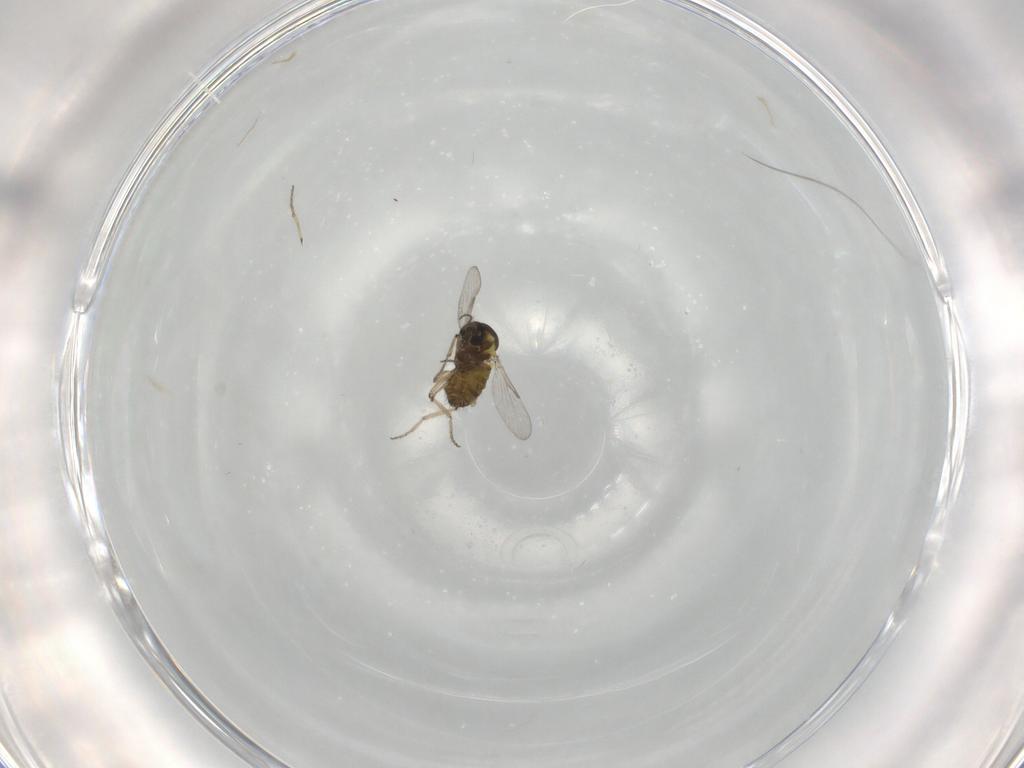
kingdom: Animalia
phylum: Arthropoda
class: Insecta
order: Diptera
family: Ceratopogonidae
